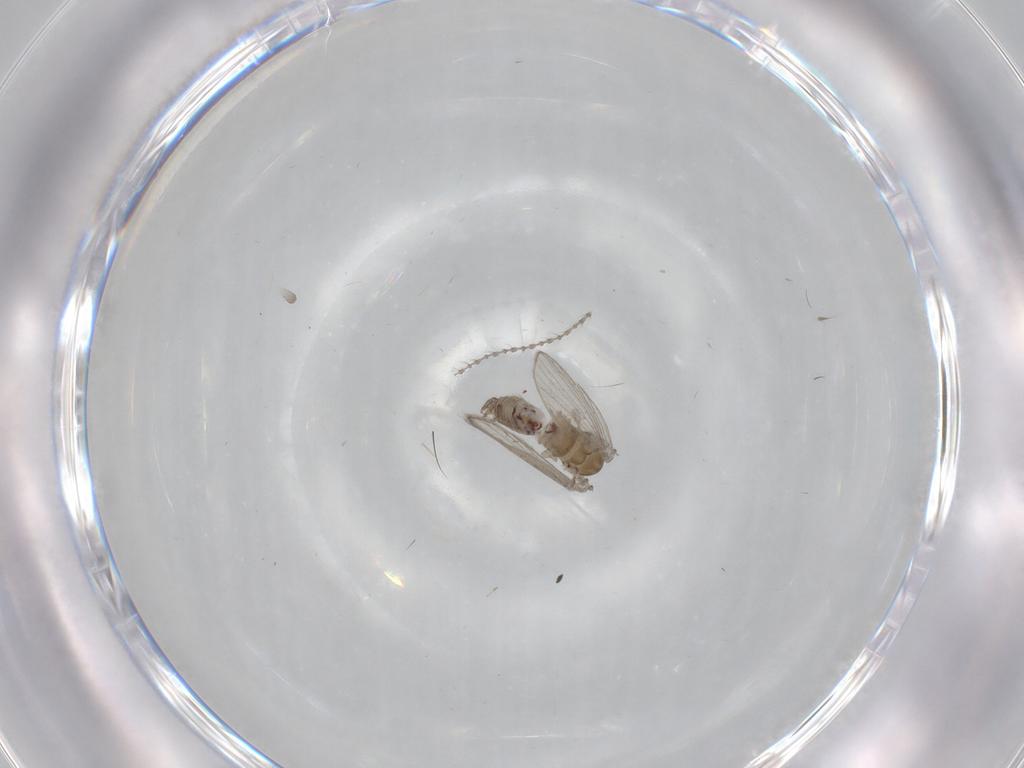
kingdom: Animalia
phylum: Arthropoda
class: Insecta
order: Diptera
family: Psychodidae
